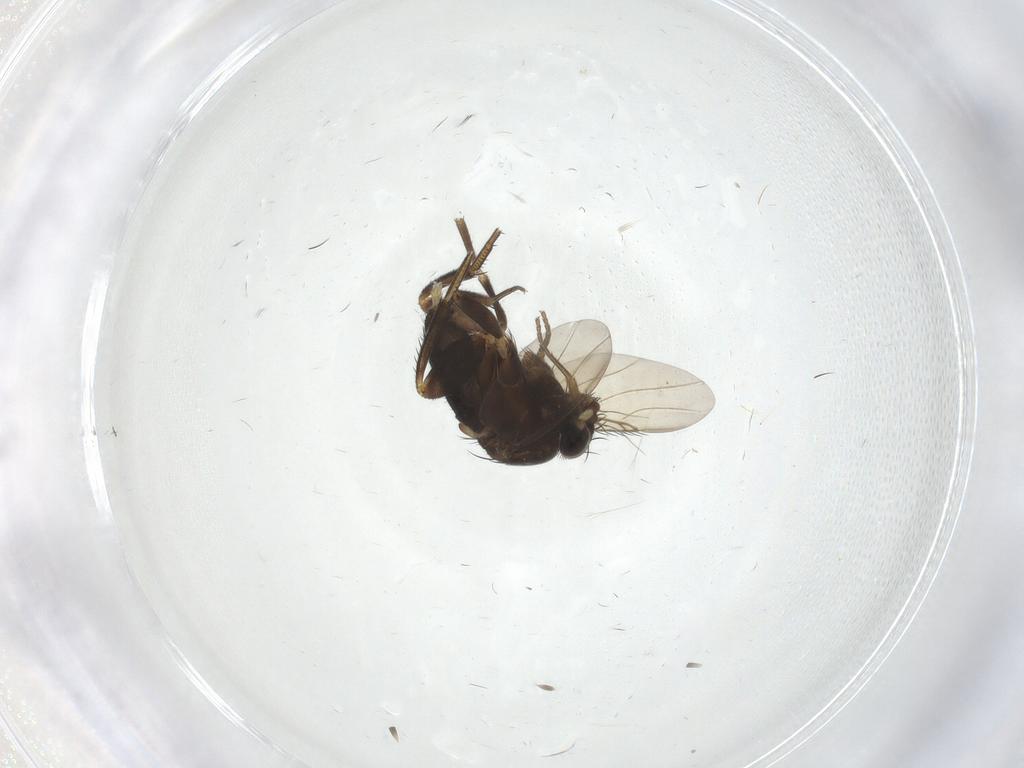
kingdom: Animalia
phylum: Arthropoda
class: Insecta
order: Diptera
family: Phoridae
